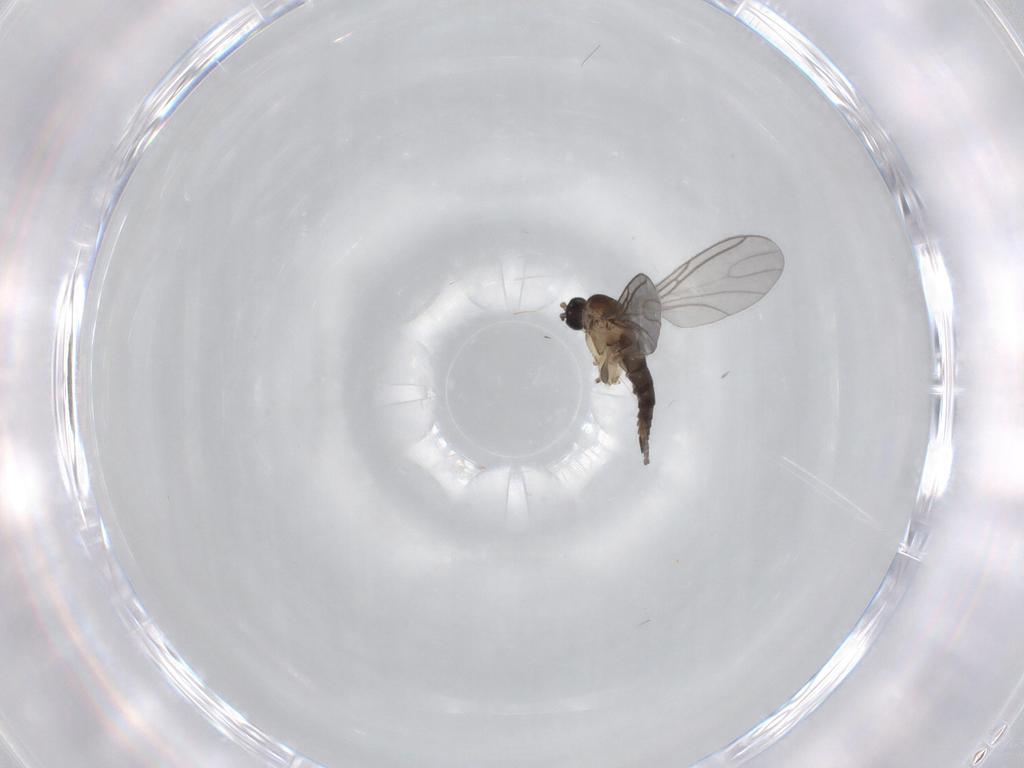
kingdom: Animalia
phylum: Arthropoda
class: Insecta
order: Diptera
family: Sciaridae
